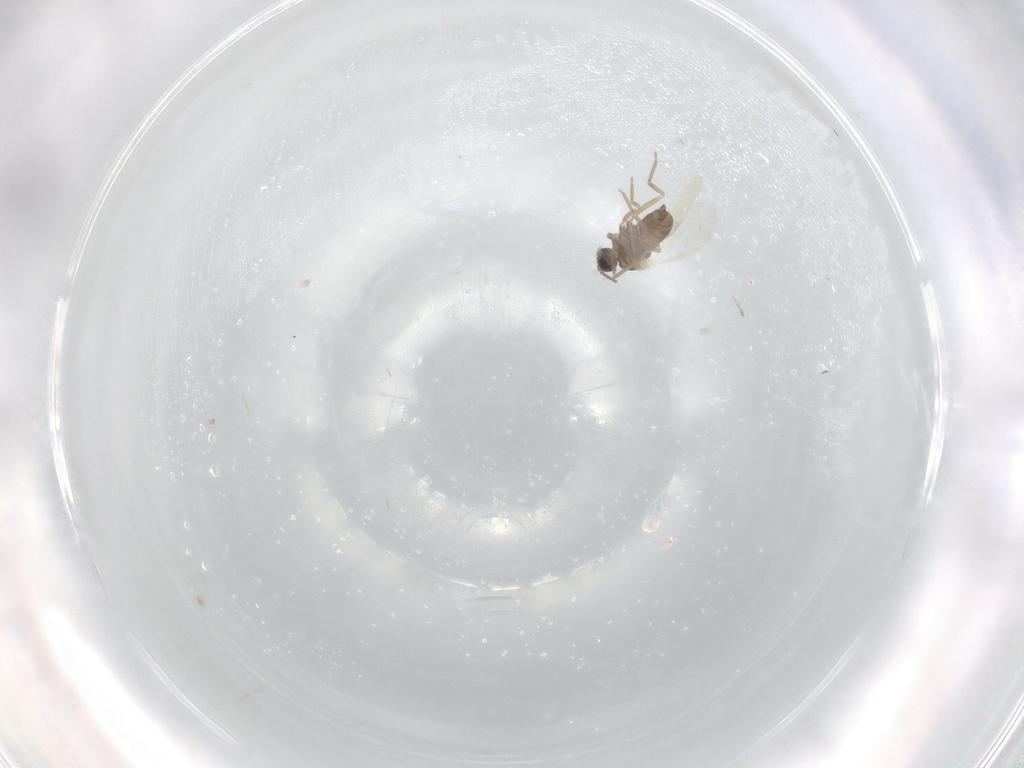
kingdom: Animalia
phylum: Arthropoda
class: Insecta
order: Diptera
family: Cecidomyiidae
